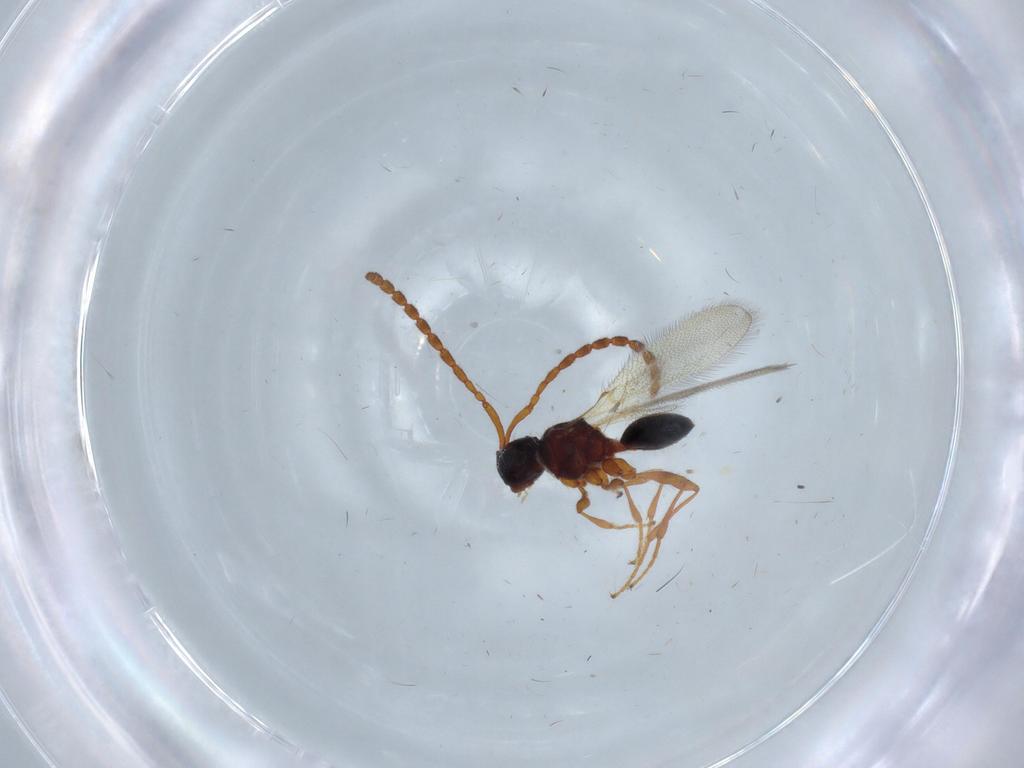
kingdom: Animalia
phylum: Arthropoda
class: Insecta
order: Hymenoptera
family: Diapriidae
